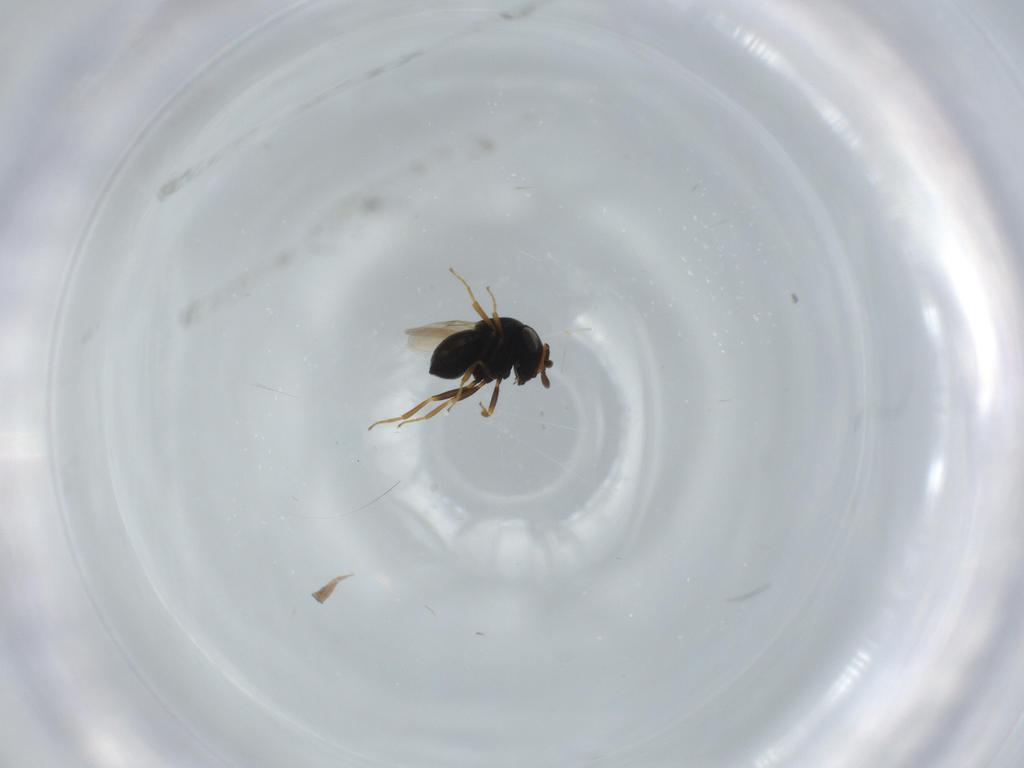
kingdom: Animalia
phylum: Arthropoda
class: Insecta
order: Hymenoptera
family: Scelionidae
